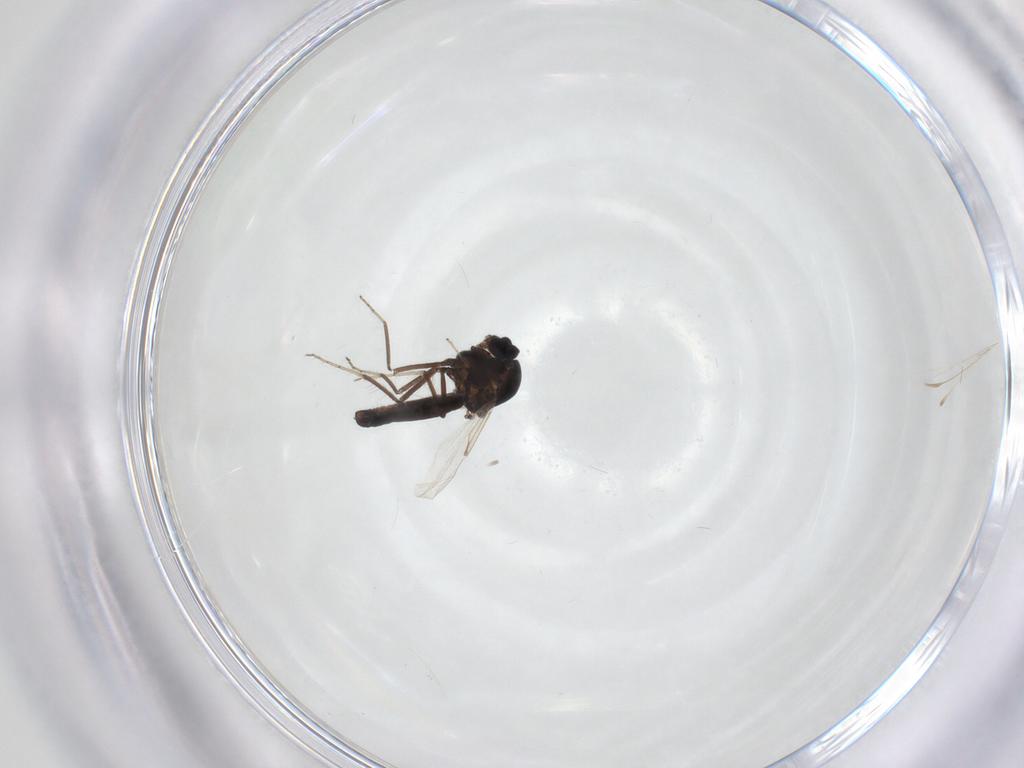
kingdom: Animalia
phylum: Arthropoda
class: Insecta
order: Diptera
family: Ceratopogonidae
